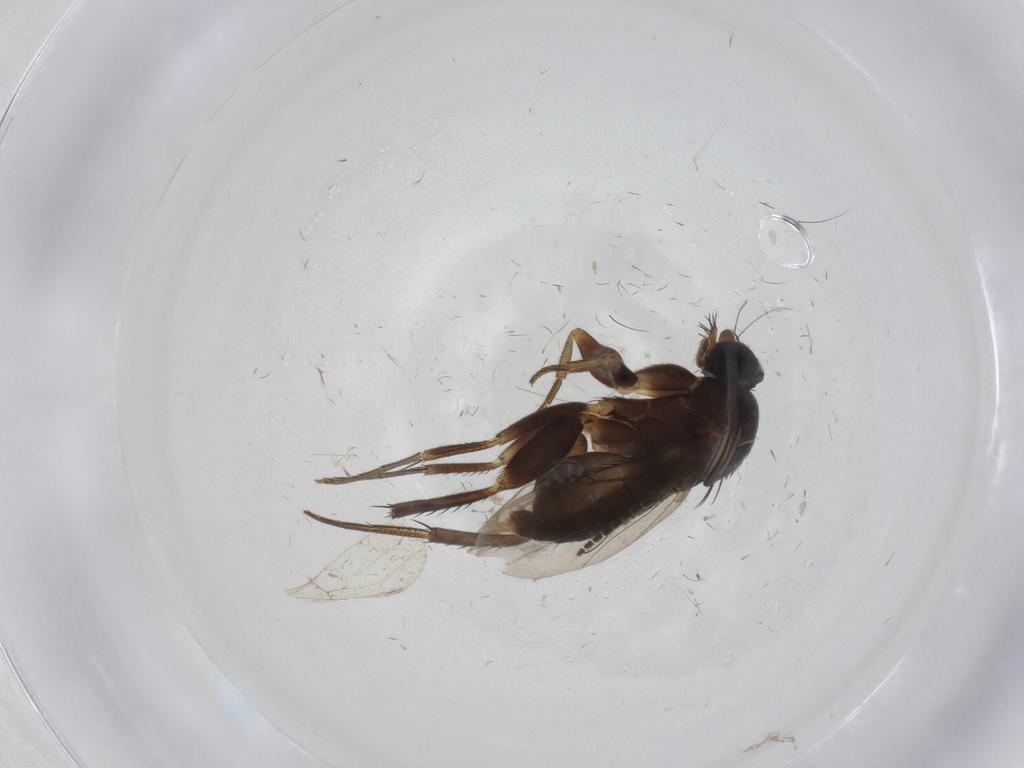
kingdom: Animalia
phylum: Arthropoda
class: Insecta
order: Diptera
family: Phoridae
